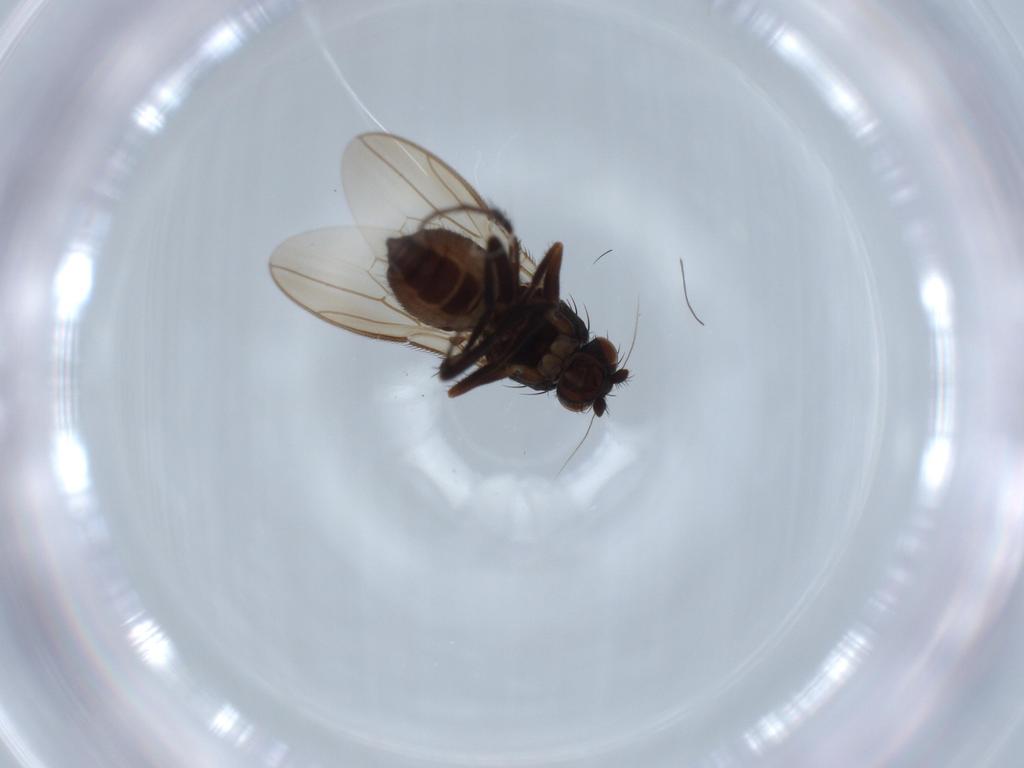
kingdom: Animalia
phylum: Arthropoda
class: Insecta
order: Diptera
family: Sphaeroceridae
